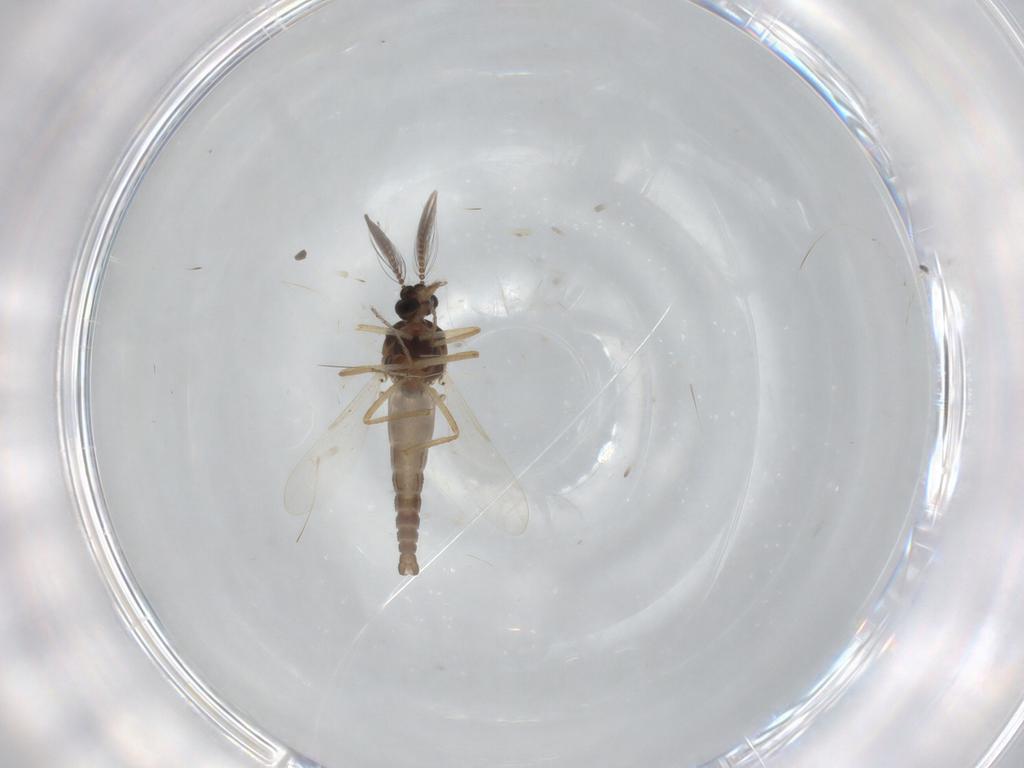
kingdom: Animalia
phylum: Arthropoda
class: Insecta
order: Diptera
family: Ceratopogonidae
